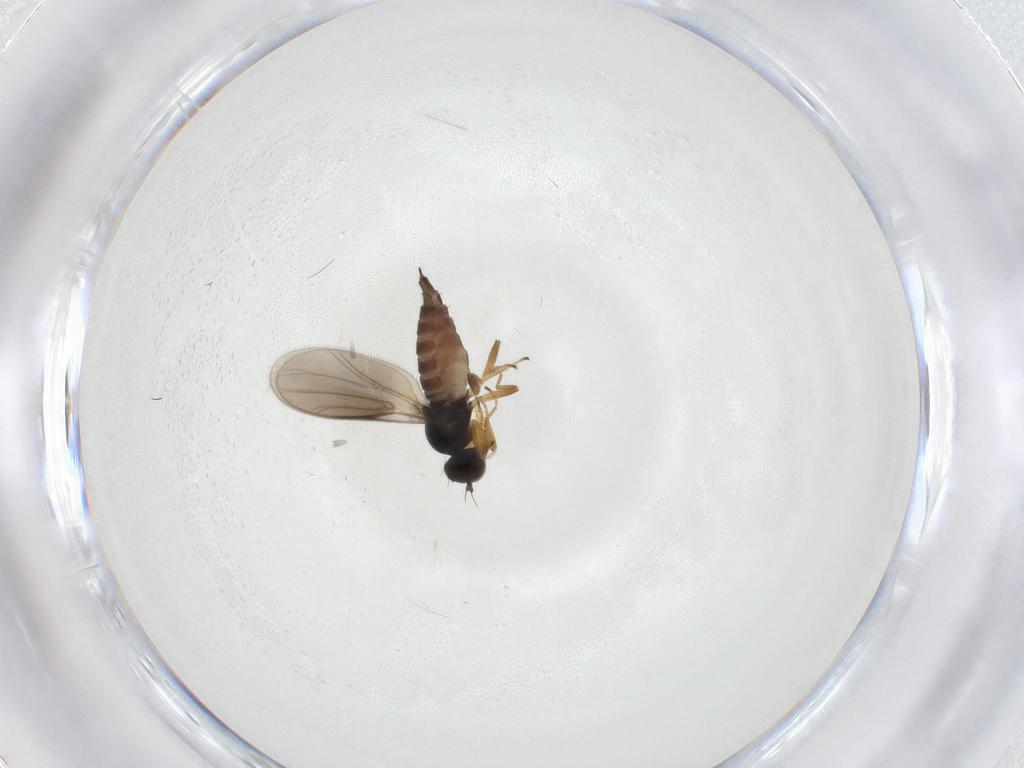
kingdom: Animalia
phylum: Arthropoda
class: Insecta
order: Diptera
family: Hybotidae
